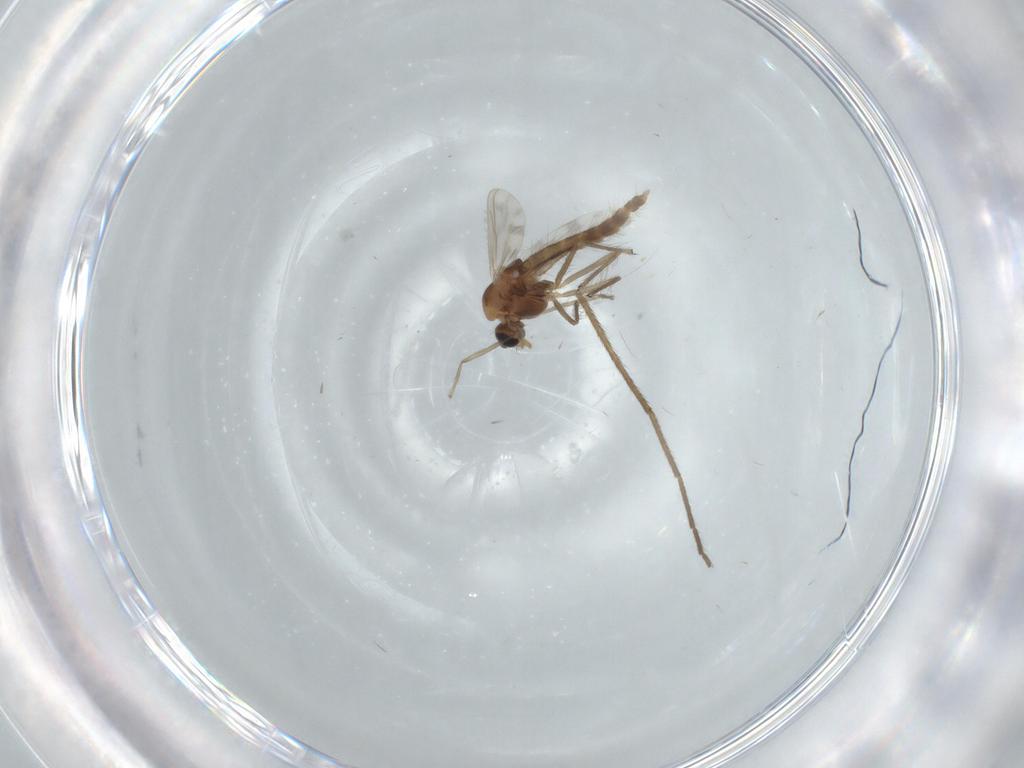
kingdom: Animalia
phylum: Arthropoda
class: Insecta
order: Diptera
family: Chironomidae
